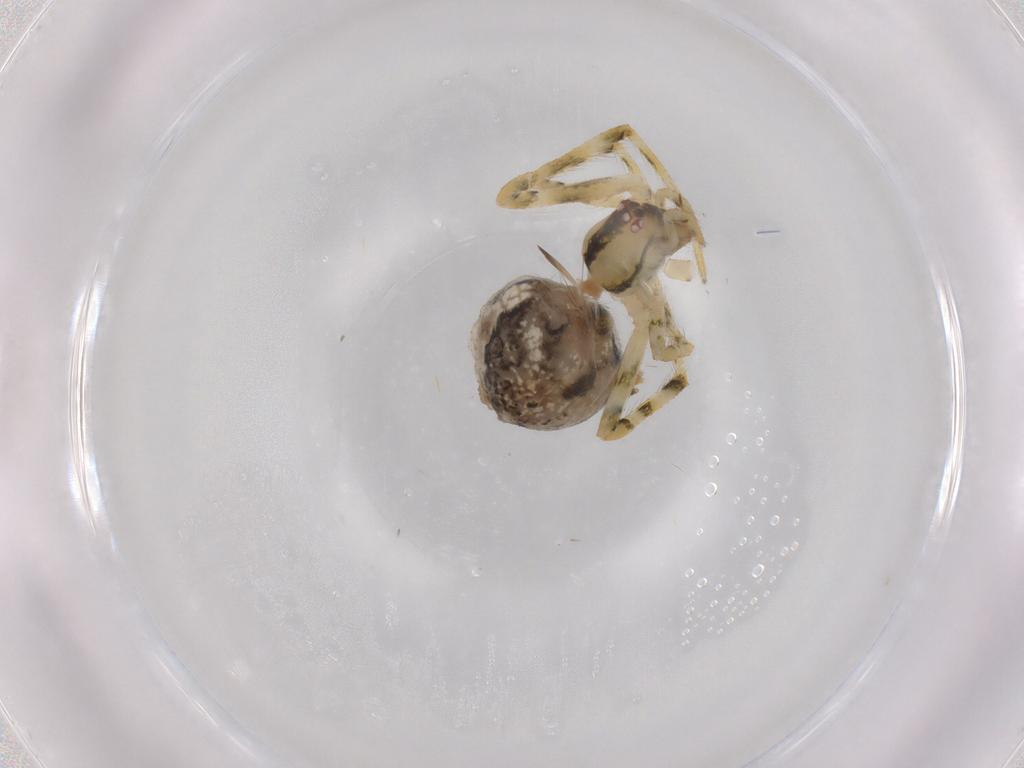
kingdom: Animalia
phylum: Arthropoda
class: Arachnida
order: Araneae
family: Theridiidae
